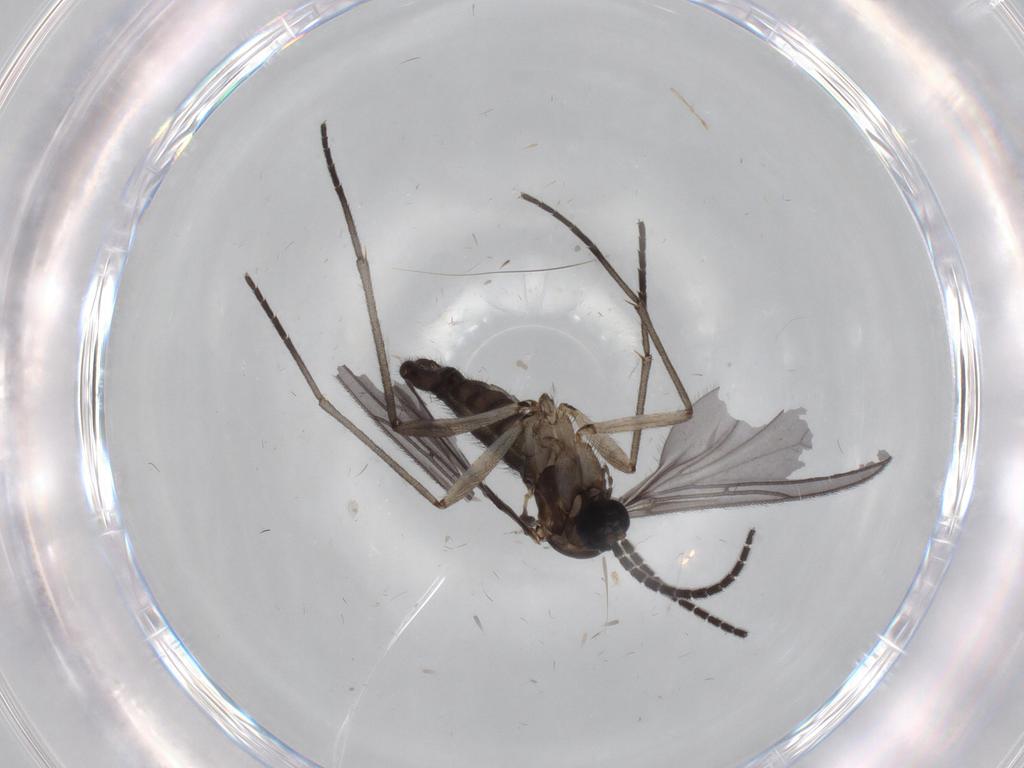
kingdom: Animalia
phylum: Arthropoda
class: Insecta
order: Diptera
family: Sciaridae
